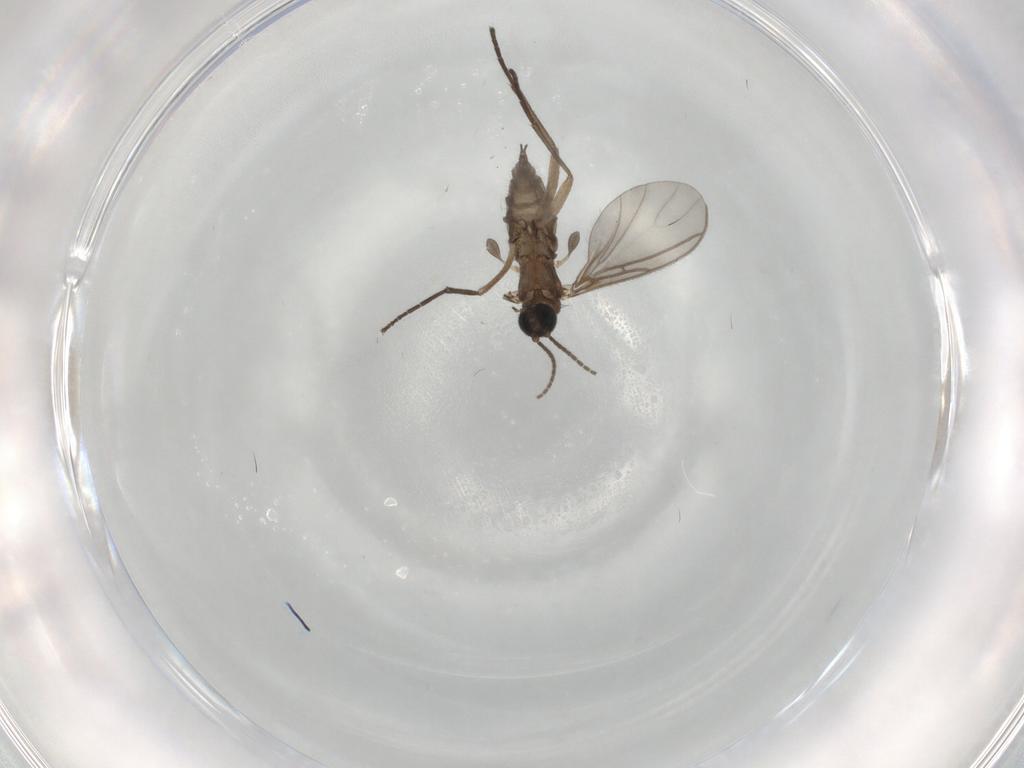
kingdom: Animalia
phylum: Arthropoda
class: Insecta
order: Diptera
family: Sciaridae
